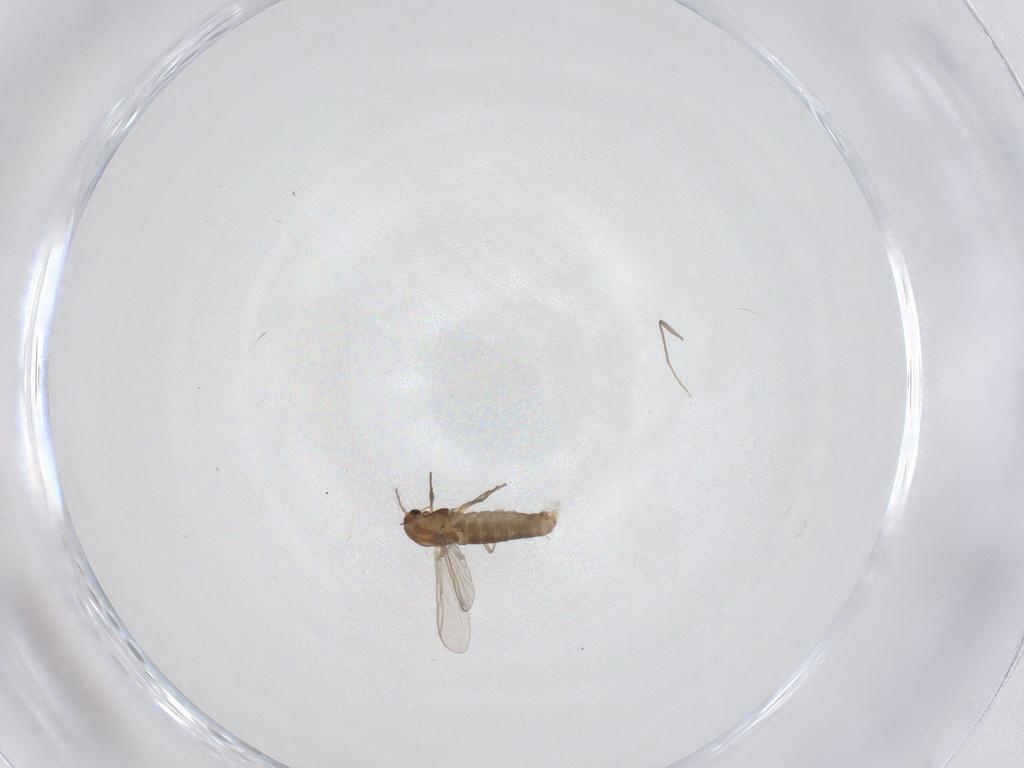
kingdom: Animalia
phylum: Arthropoda
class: Insecta
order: Diptera
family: Chironomidae
